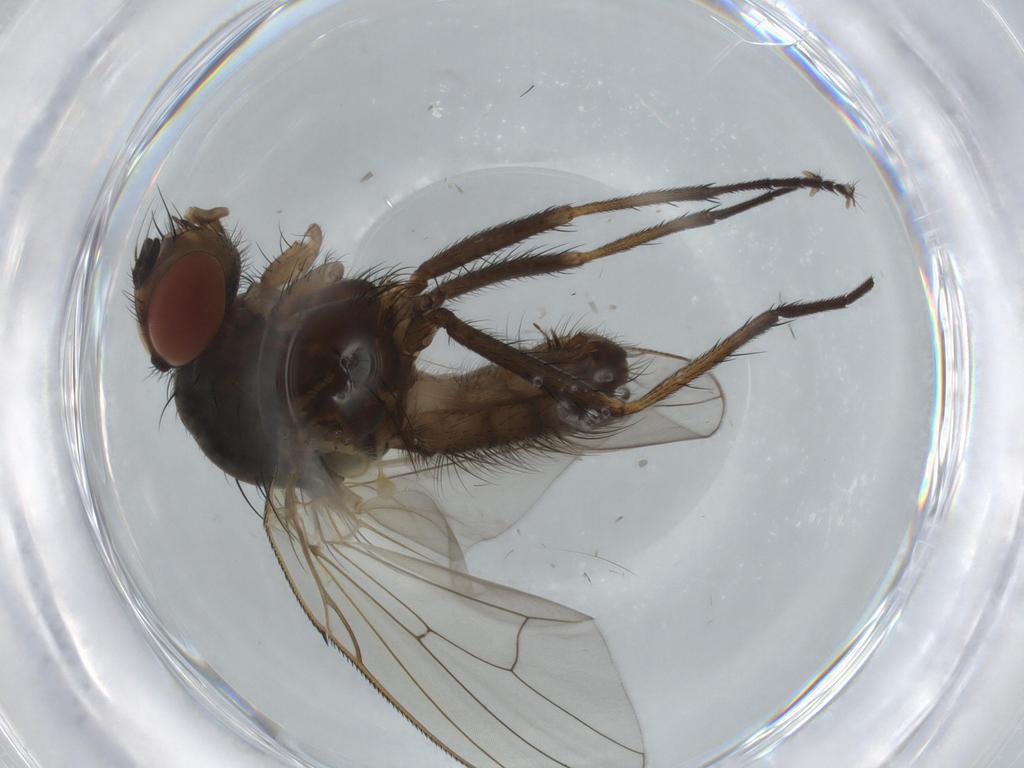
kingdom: Animalia
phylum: Arthropoda
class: Insecta
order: Diptera
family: Anthomyiidae
